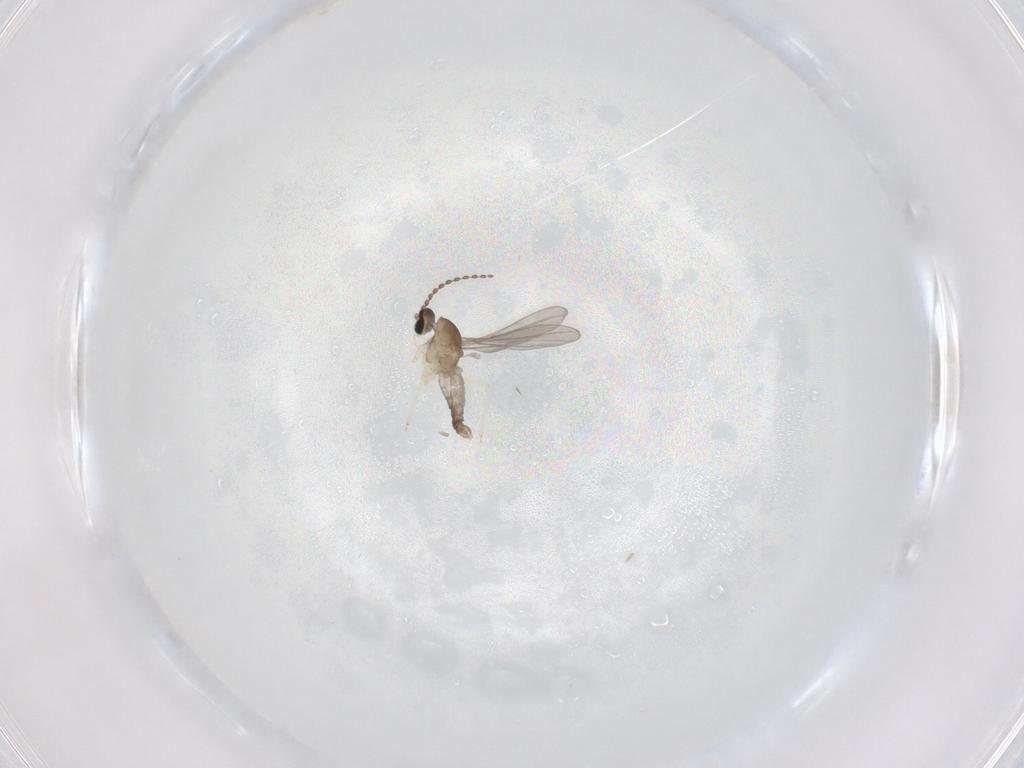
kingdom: Animalia
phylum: Arthropoda
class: Insecta
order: Diptera
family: Cecidomyiidae
